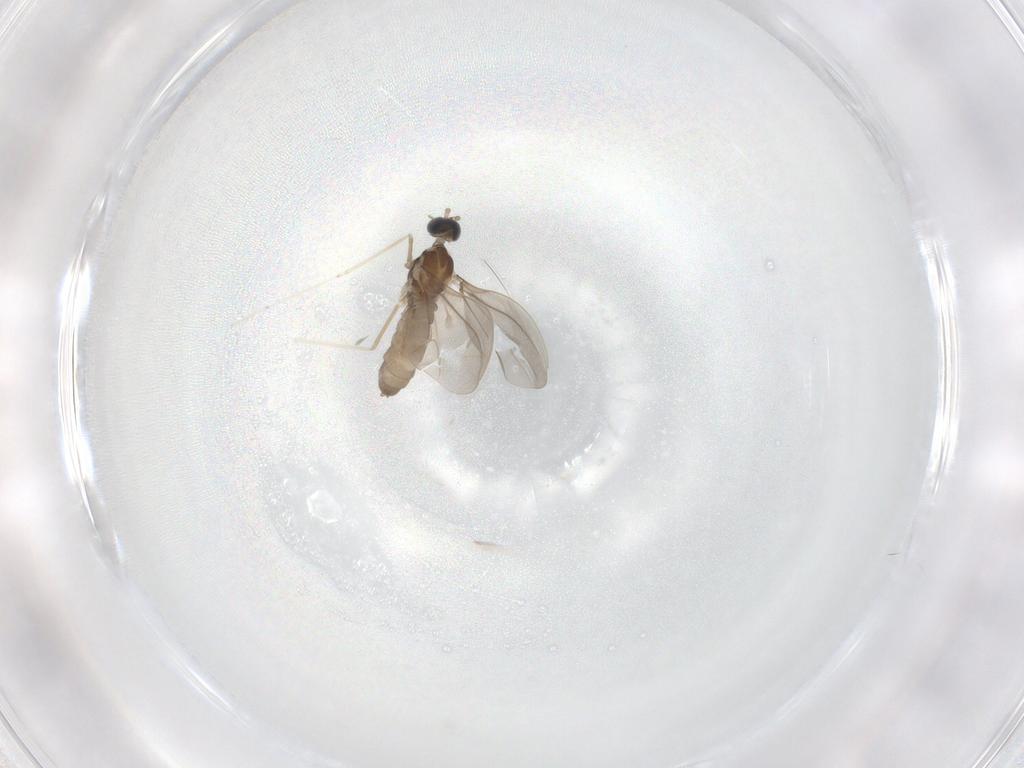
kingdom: Animalia
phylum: Arthropoda
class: Insecta
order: Diptera
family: Cecidomyiidae
